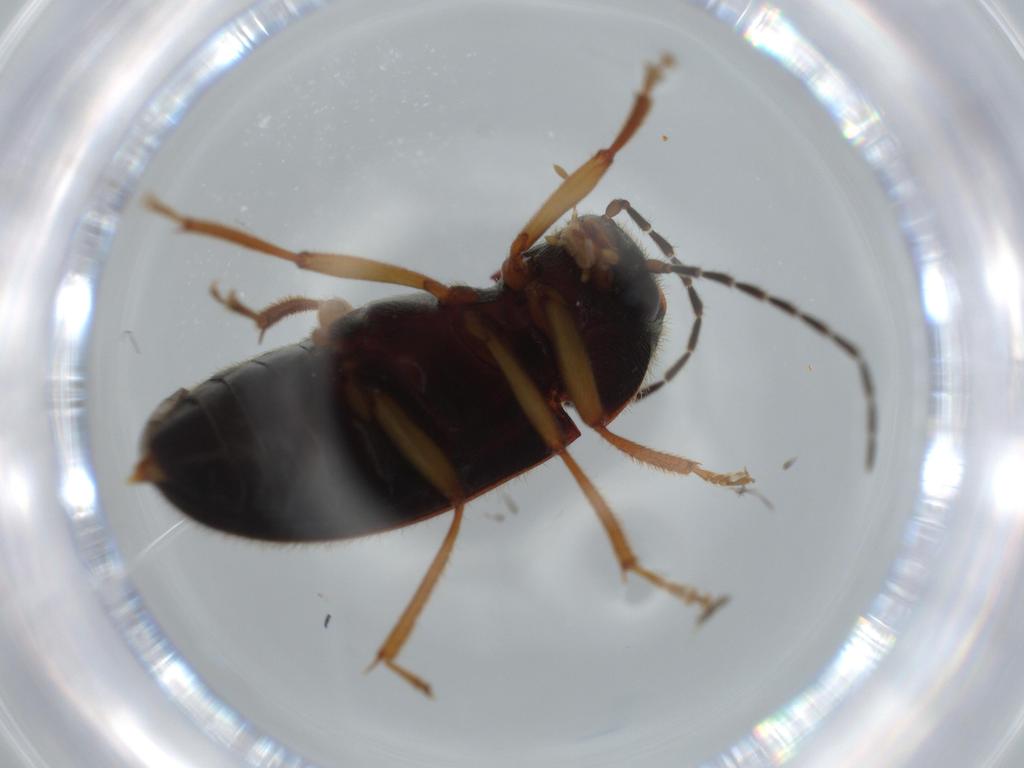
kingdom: Animalia
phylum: Arthropoda
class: Insecta
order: Coleoptera
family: Ptilodactylidae
